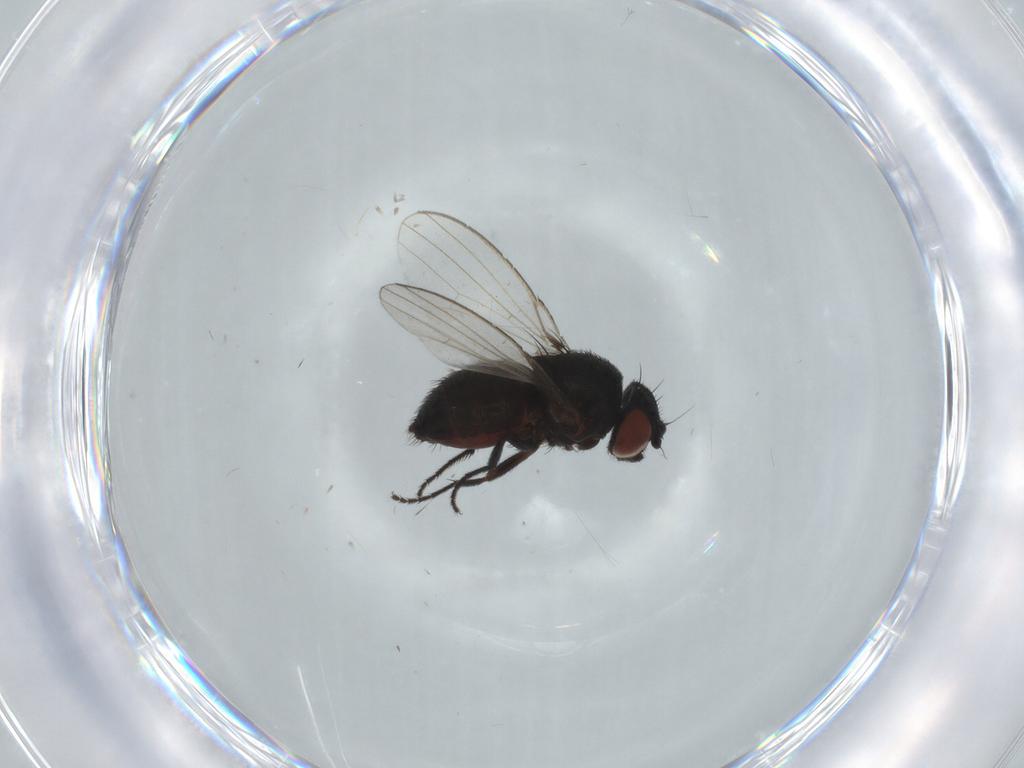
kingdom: Animalia
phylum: Arthropoda
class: Insecta
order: Diptera
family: Milichiidae
